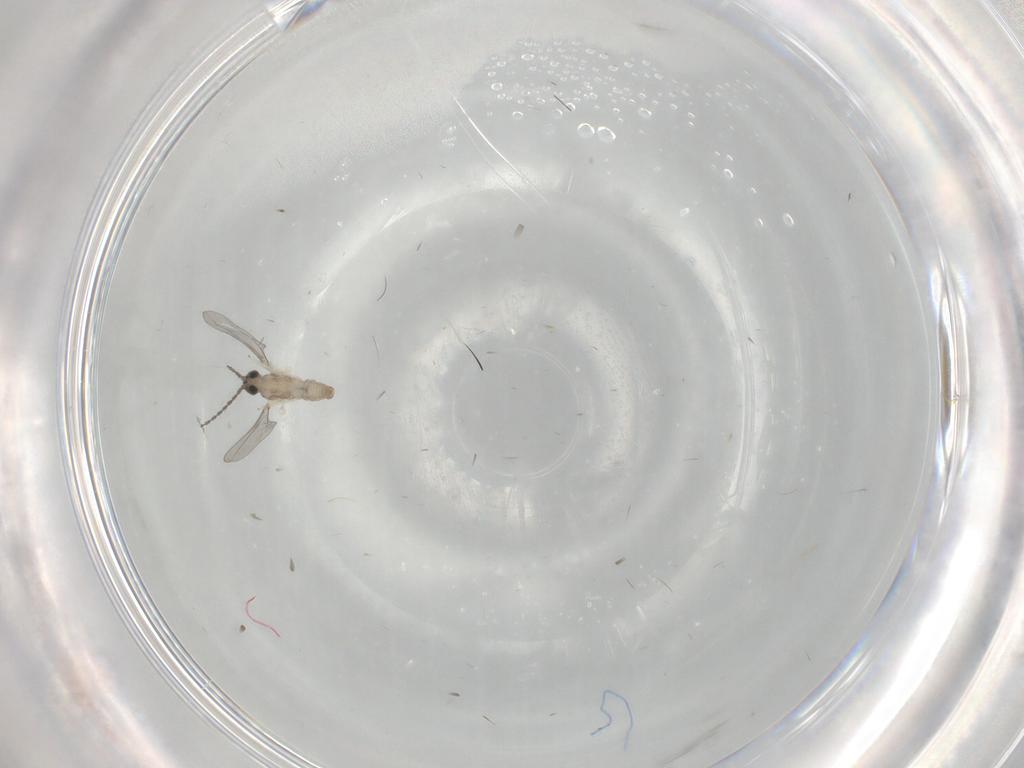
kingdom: Animalia
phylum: Arthropoda
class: Insecta
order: Diptera
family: Cecidomyiidae
